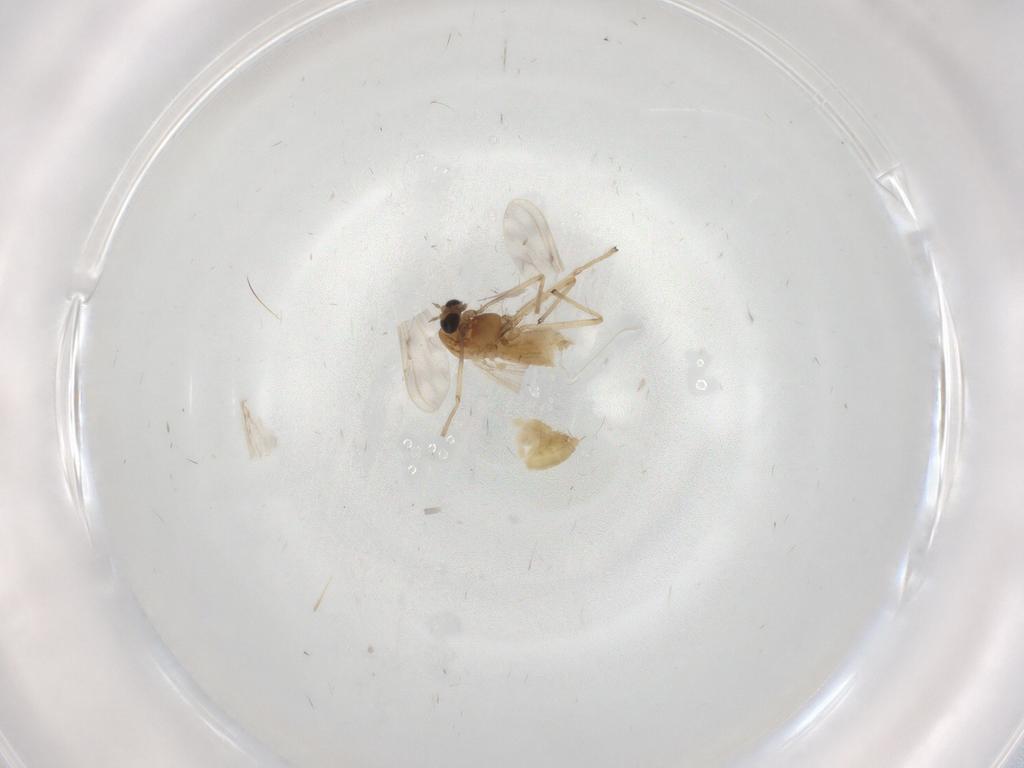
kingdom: Animalia
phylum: Arthropoda
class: Insecta
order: Diptera
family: Chironomidae
